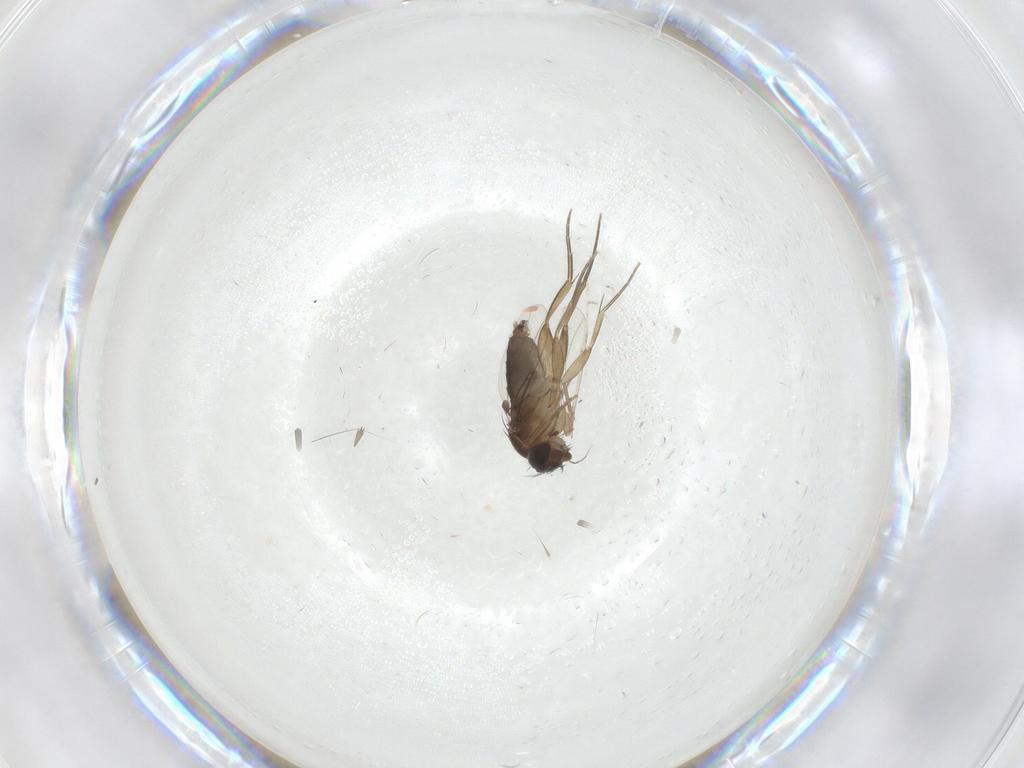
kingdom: Animalia
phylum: Arthropoda
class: Insecta
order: Diptera
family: Phoridae
